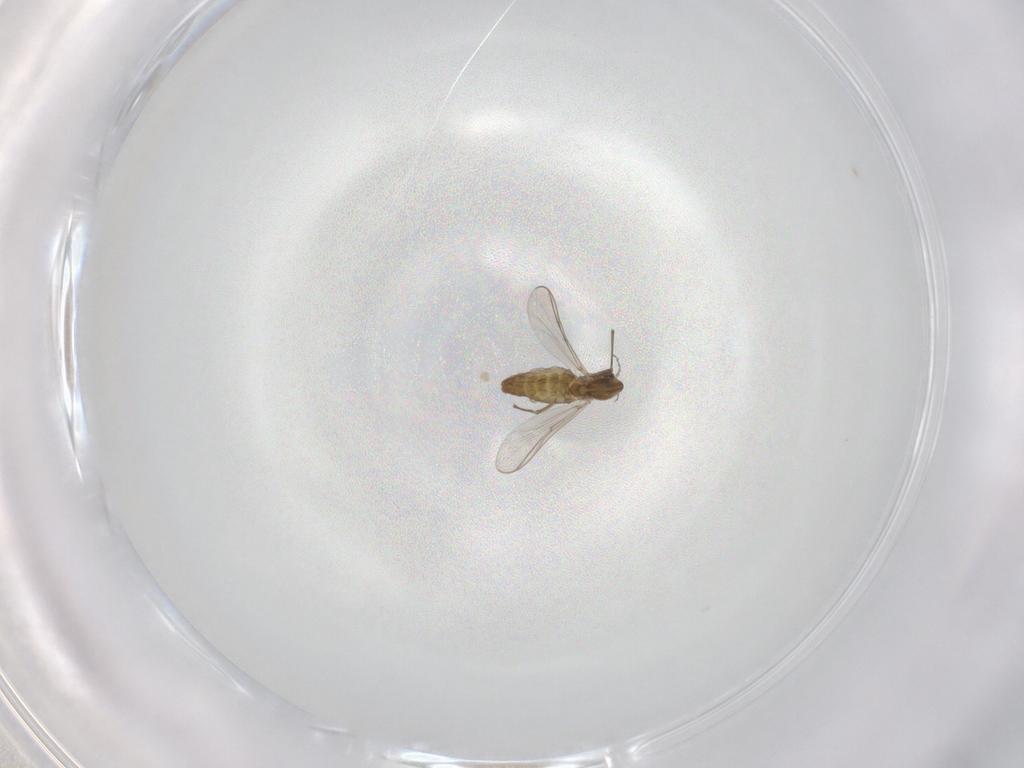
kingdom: Animalia
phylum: Arthropoda
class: Insecta
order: Diptera
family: Chironomidae
